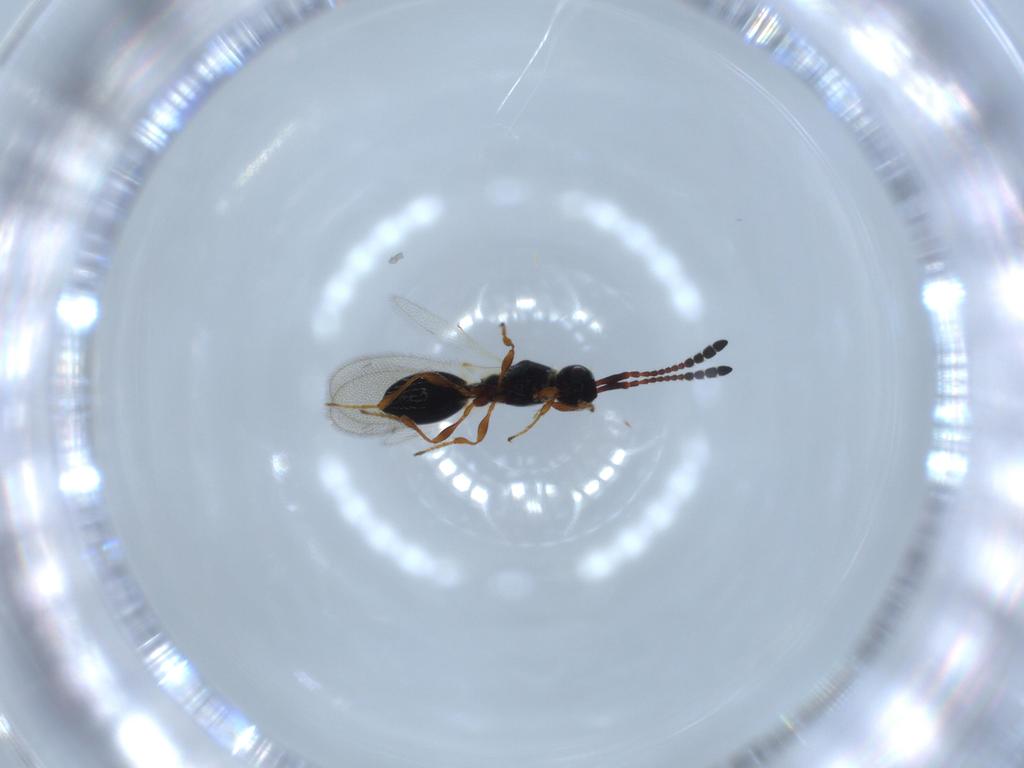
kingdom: Animalia
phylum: Arthropoda
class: Insecta
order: Hymenoptera
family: Diapriidae
